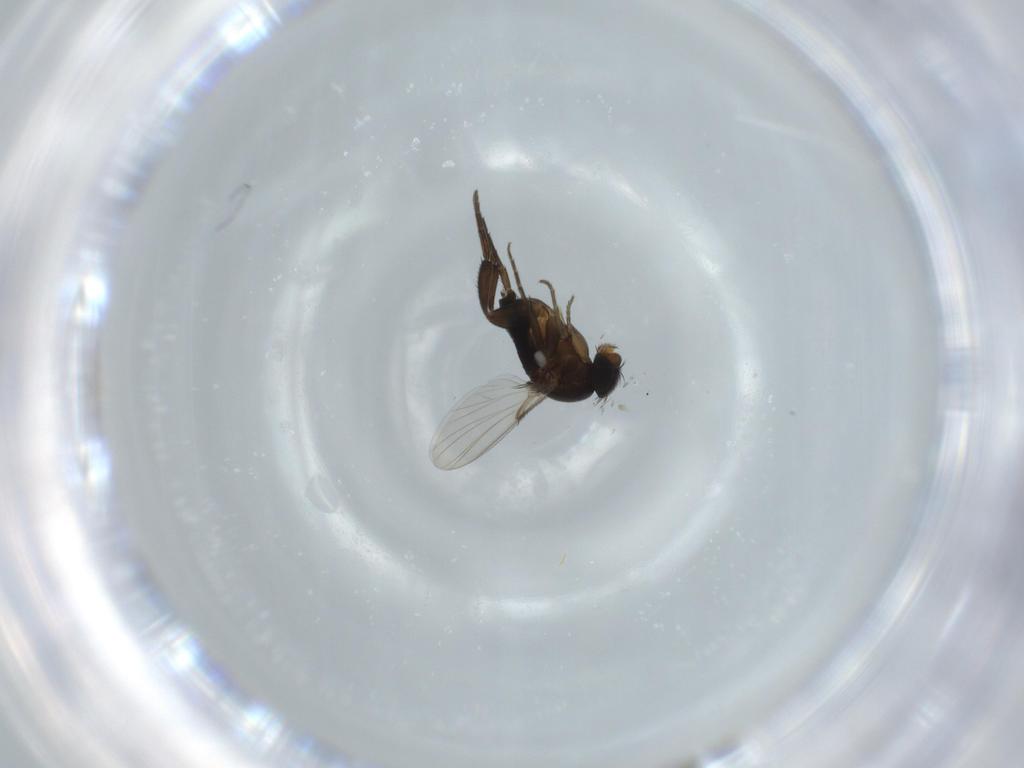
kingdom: Animalia
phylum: Arthropoda
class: Insecta
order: Diptera
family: Phoridae
